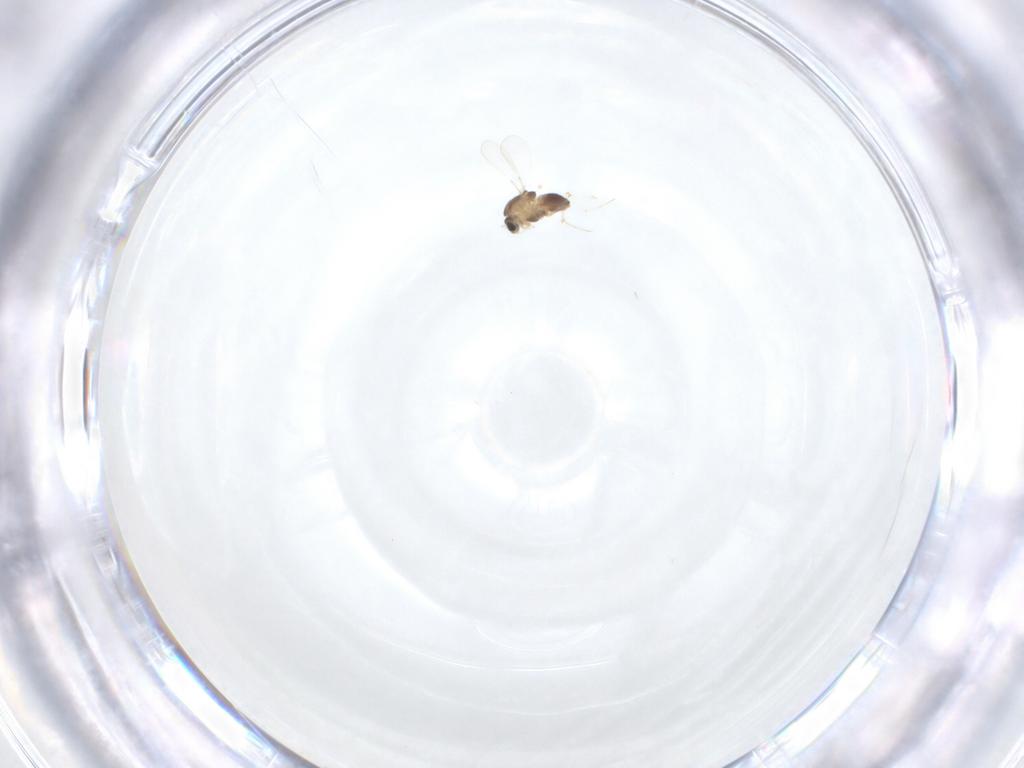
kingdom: Animalia
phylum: Arthropoda
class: Insecta
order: Diptera
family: Chironomidae
